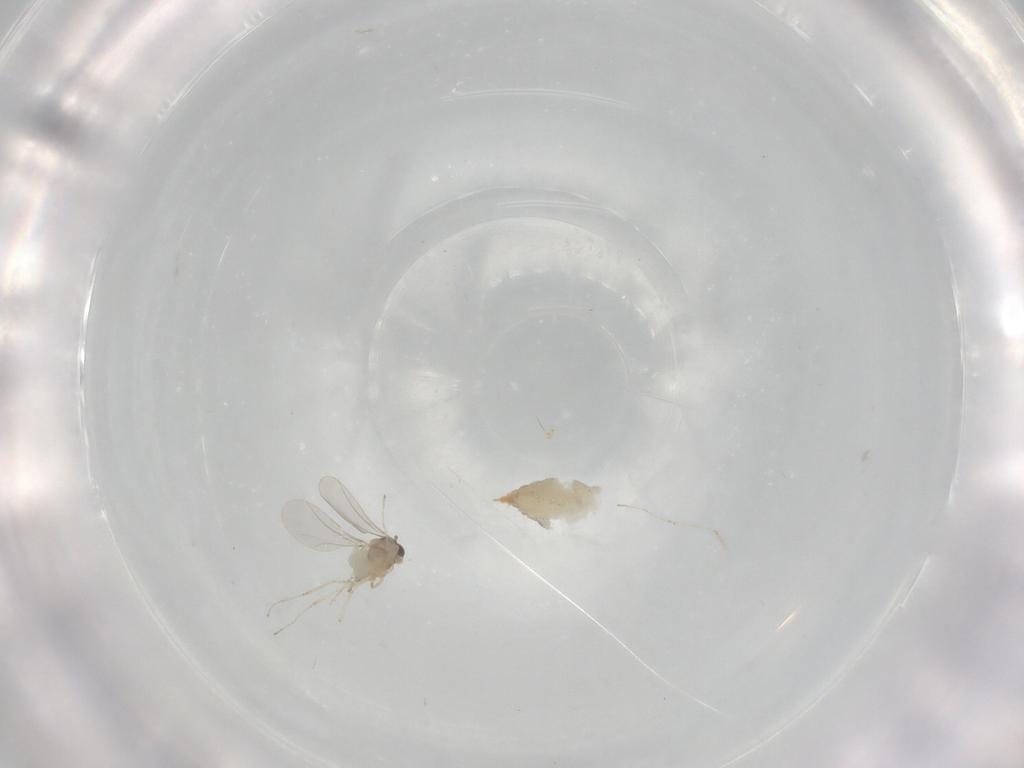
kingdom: Animalia
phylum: Arthropoda
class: Insecta
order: Diptera
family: Cecidomyiidae
